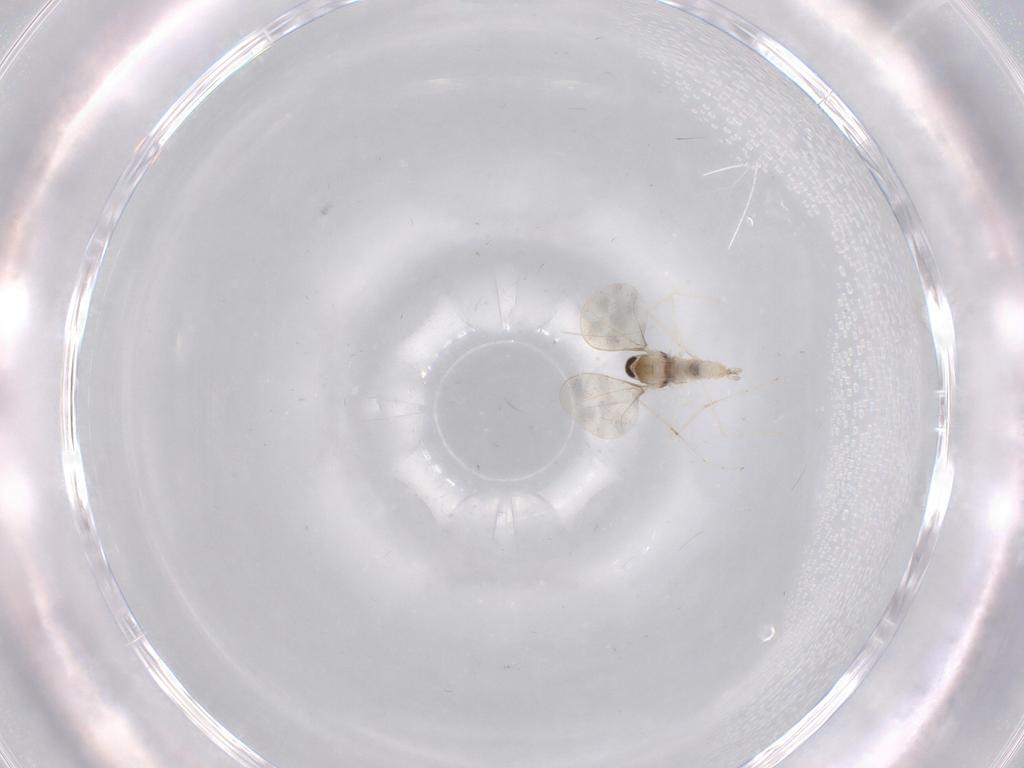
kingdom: Animalia
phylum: Arthropoda
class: Insecta
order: Diptera
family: Cecidomyiidae
